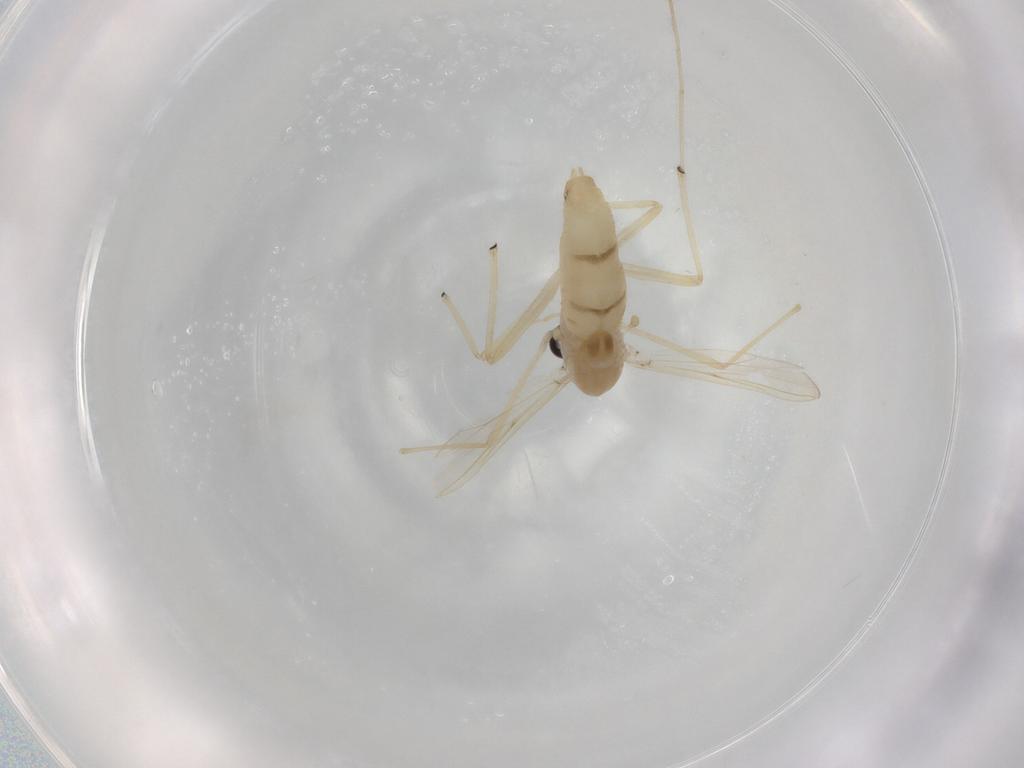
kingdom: Animalia
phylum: Arthropoda
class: Insecta
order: Diptera
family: Chironomidae
